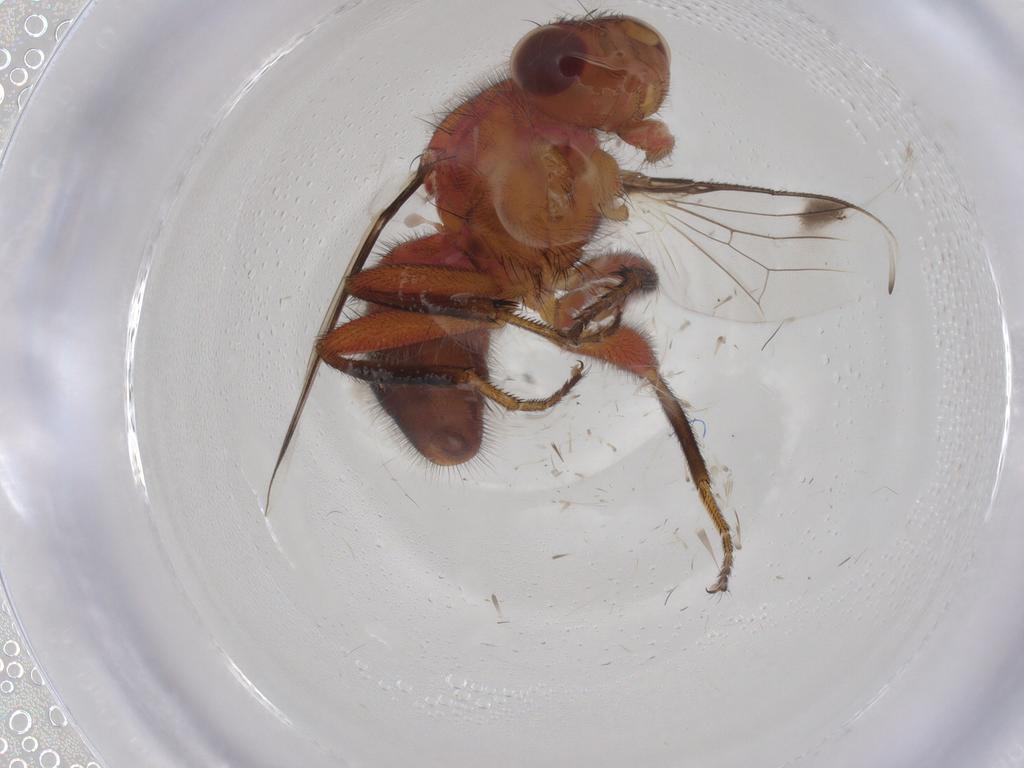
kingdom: Animalia
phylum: Arthropoda
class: Insecta
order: Diptera
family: Richardiidae
